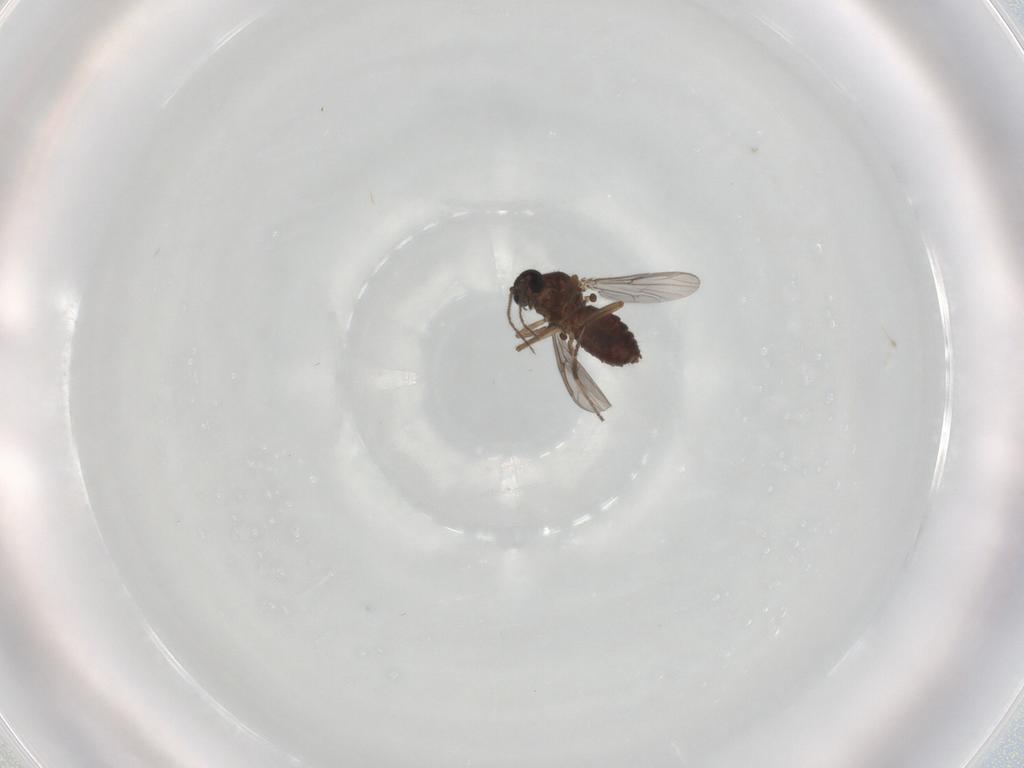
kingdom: Animalia
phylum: Arthropoda
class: Insecta
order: Diptera
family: Ceratopogonidae
